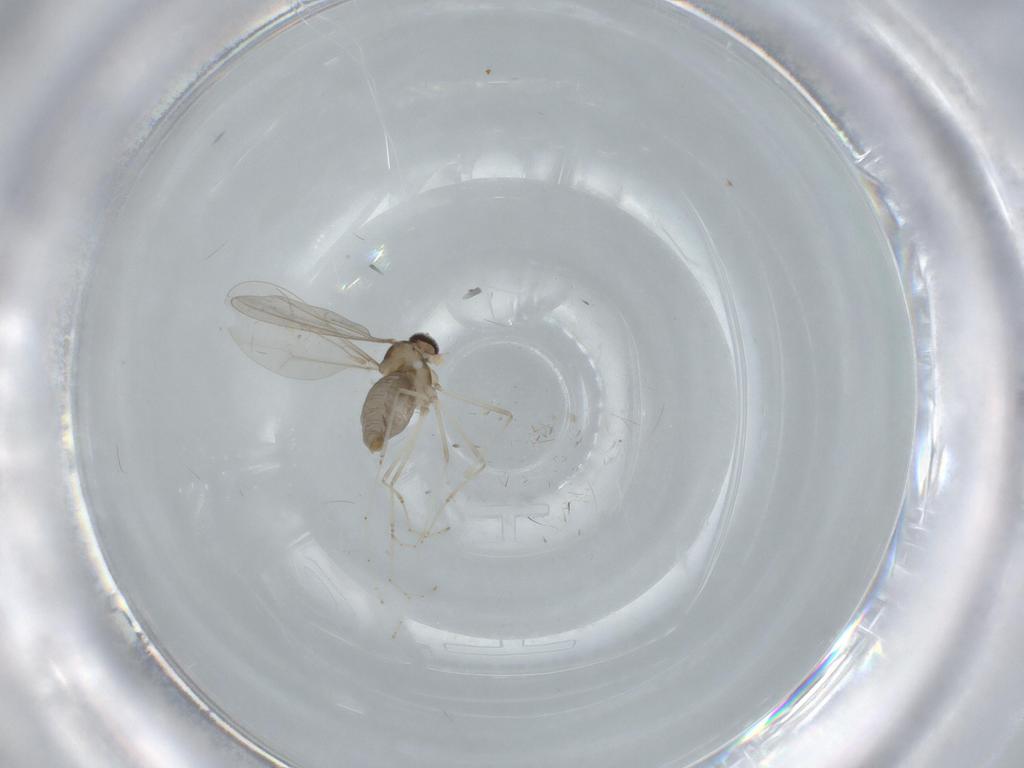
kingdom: Animalia
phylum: Arthropoda
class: Insecta
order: Diptera
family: Cecidomyiidae
